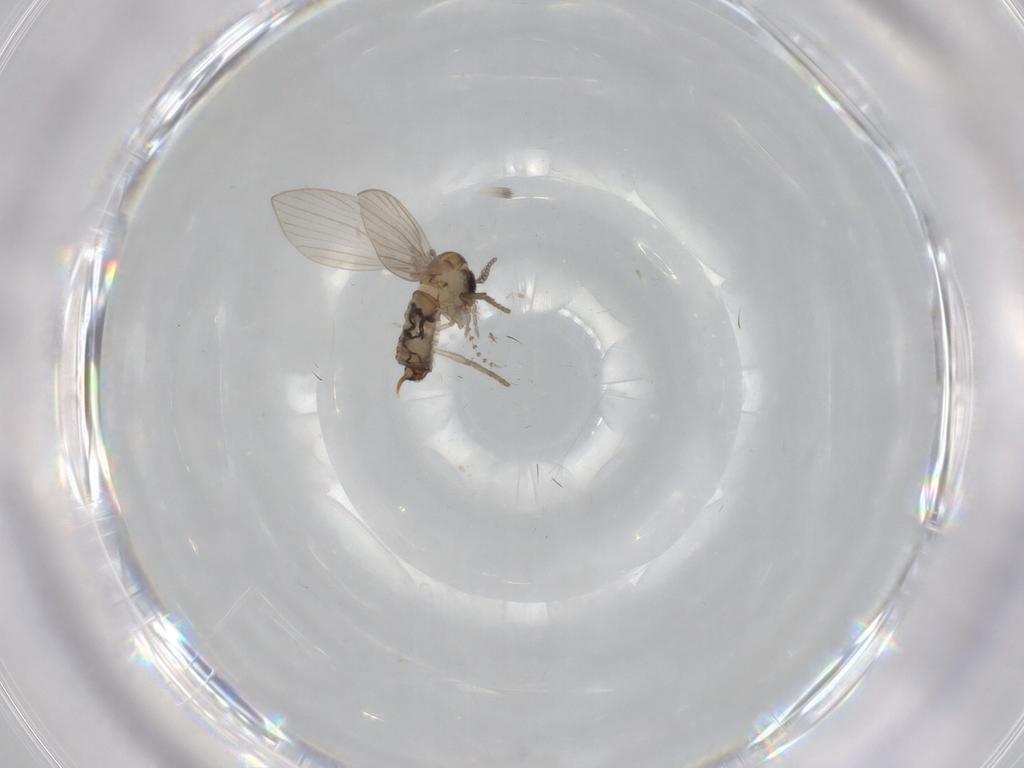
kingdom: Animalia
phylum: Arthropoda
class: Insecta
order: Diptera
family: Psychodidae
